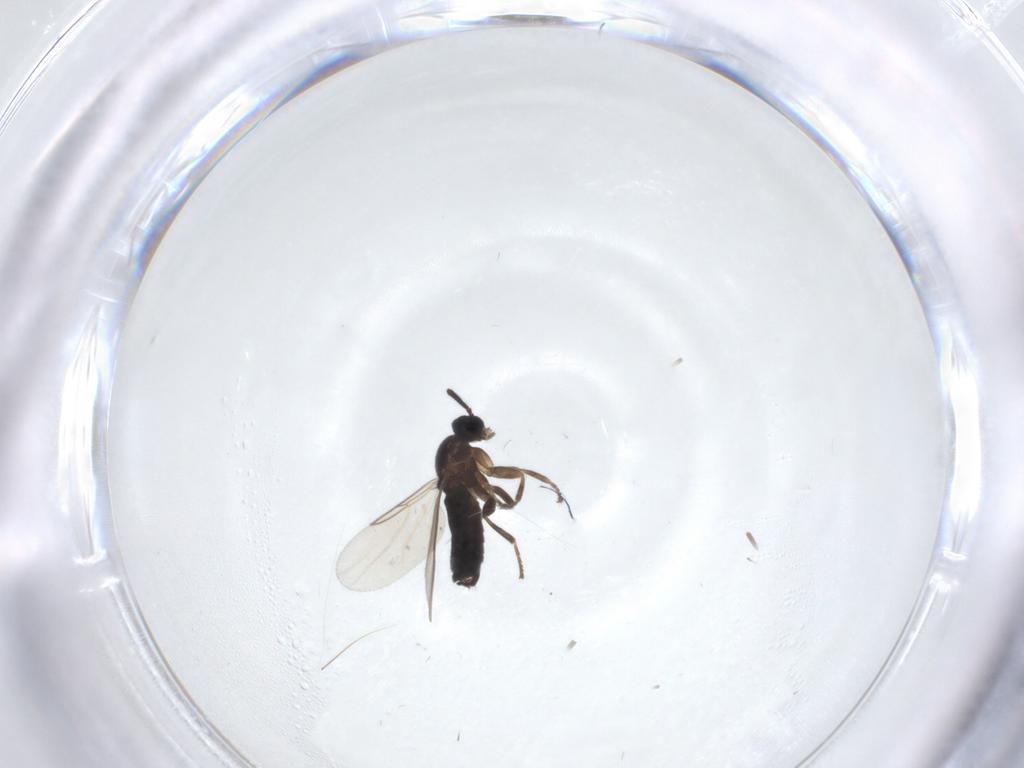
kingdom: Animalia
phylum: Arthropoda
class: Insecta
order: Diptera
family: Scatopsidae
